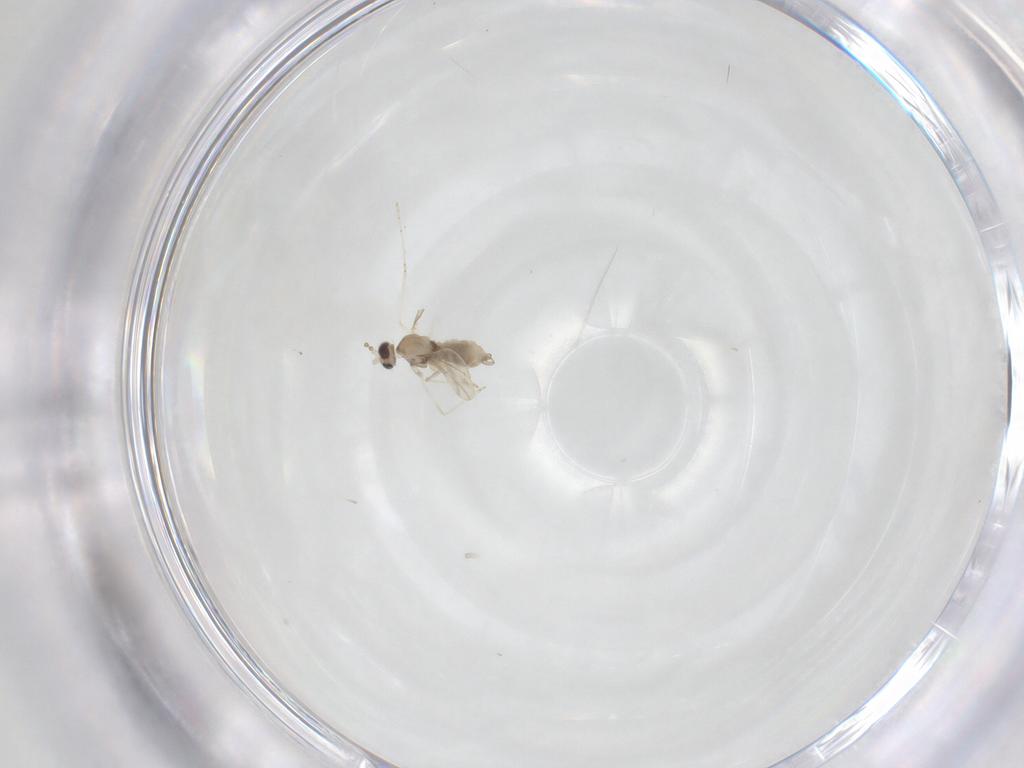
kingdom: Animalia
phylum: Arthropoda
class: Insecta
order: Diptera
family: Cecidomyiidae
